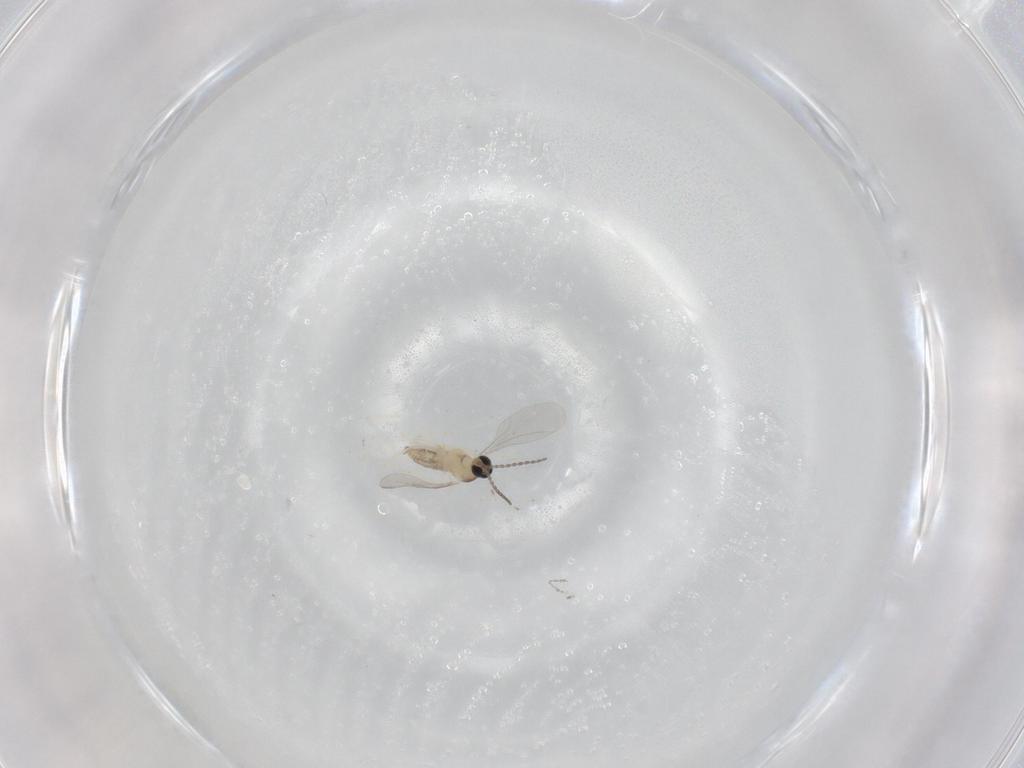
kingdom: Animalia
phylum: Arthropoda
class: Insecta
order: Diptera
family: Cecidomyiidae
